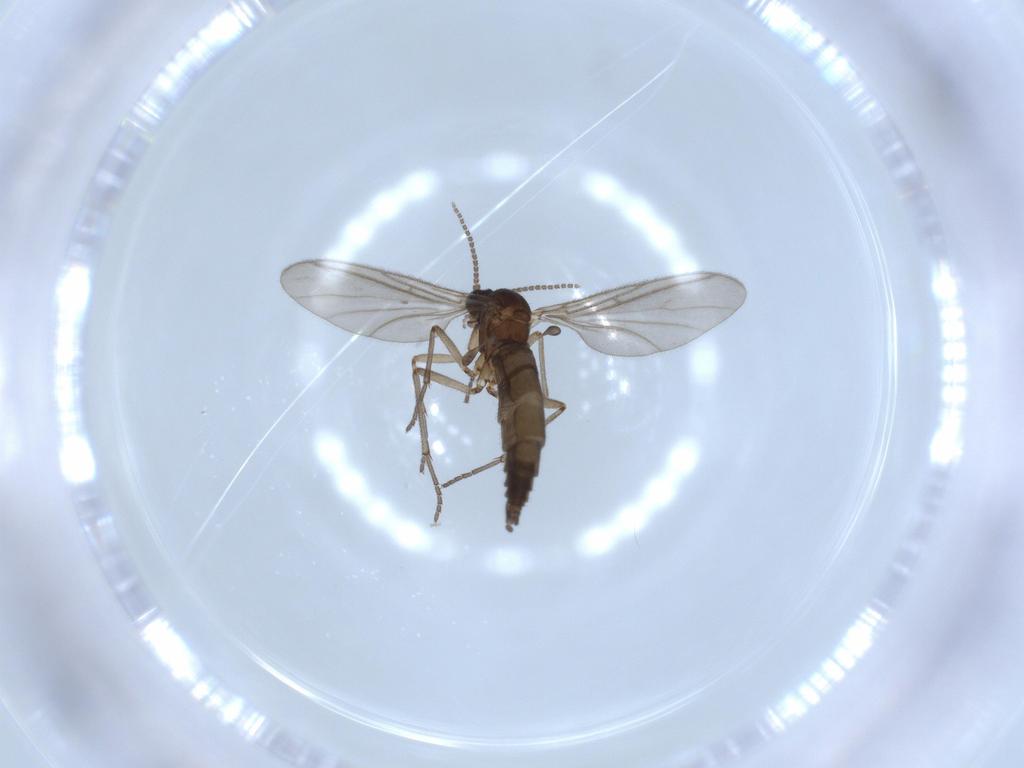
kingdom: Animalia
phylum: Arthropoda
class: Insecta
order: Diptera
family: Sciaridae
